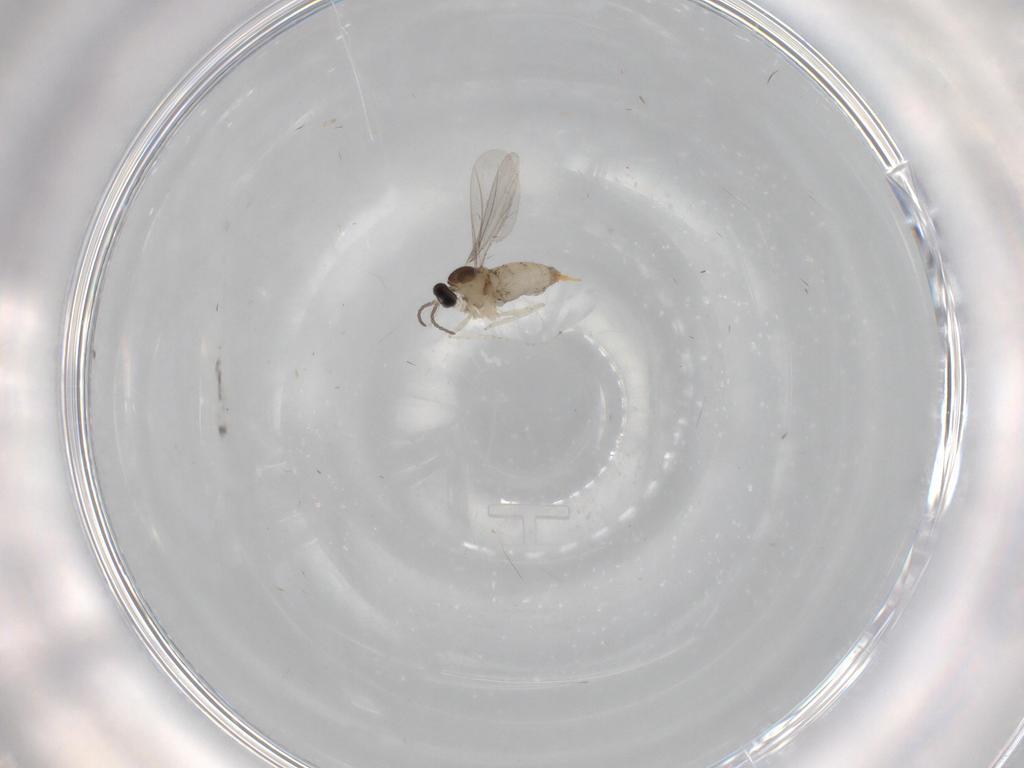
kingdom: Animalia
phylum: Arthropoda
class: Insecta
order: Diptera
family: Cecidomyiidae
